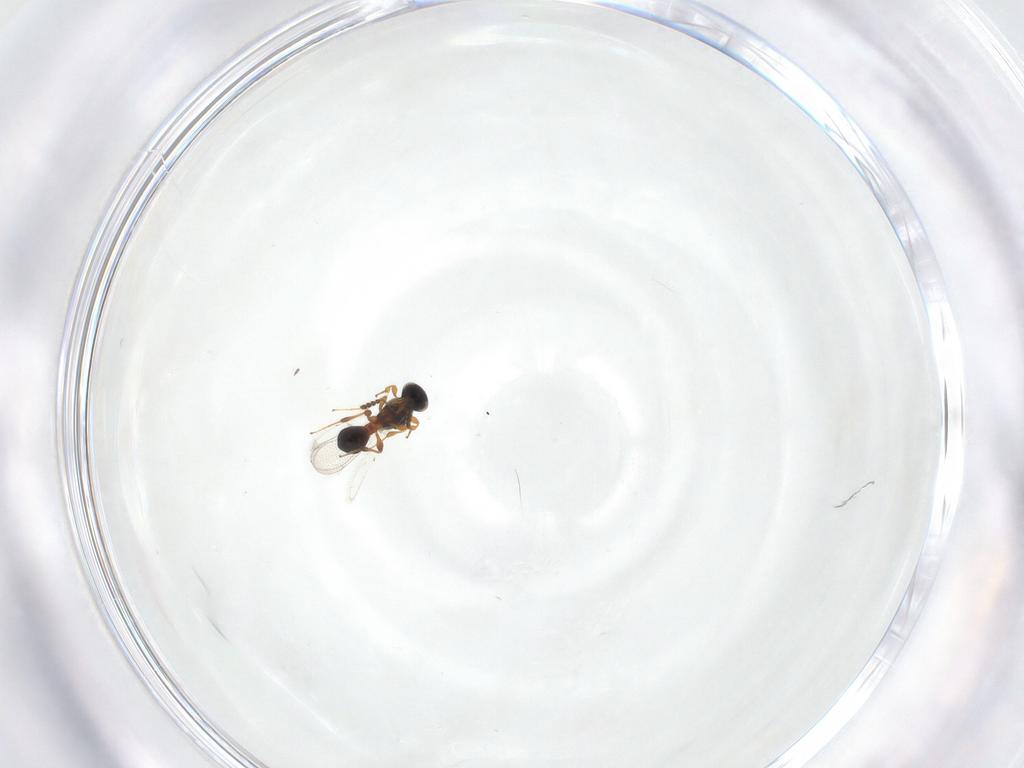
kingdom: Animalia
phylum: Arthropoda
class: Insecta
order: Hymenoptera
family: Platygastridae
